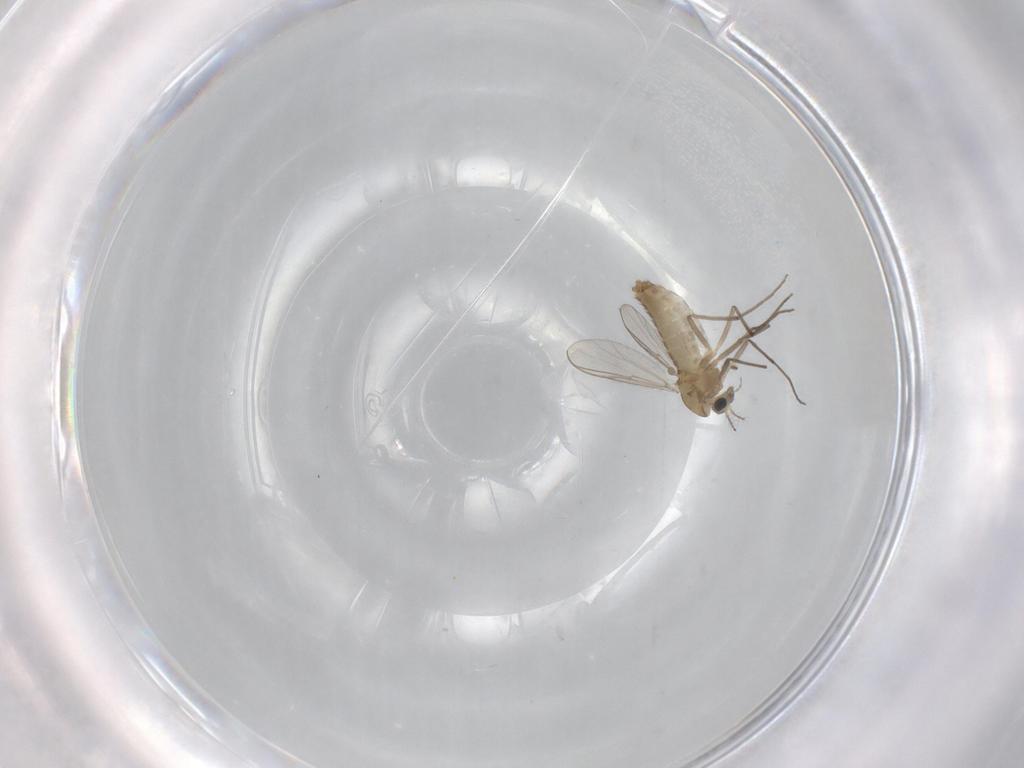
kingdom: Animalia
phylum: Arthropoda
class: Insecta
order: Diptera
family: Chironomidae
